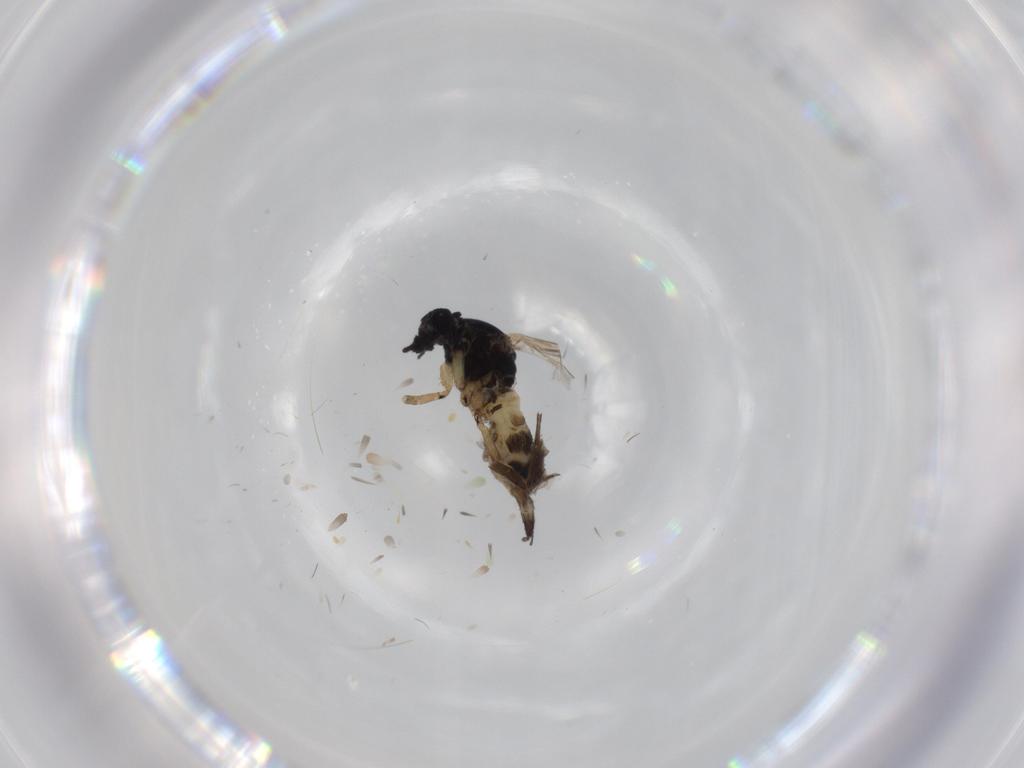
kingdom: Animalia
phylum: Arthropoda
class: Insecta
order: Diptera
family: Sciaridae
